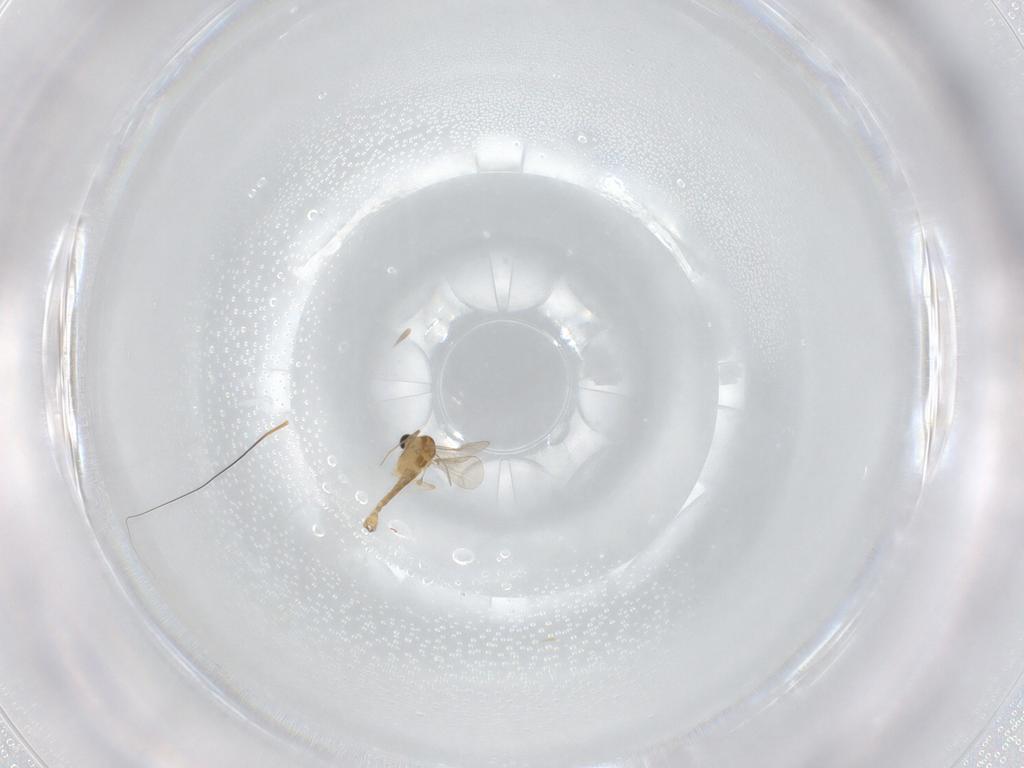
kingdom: Animalia
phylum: Arthropoda
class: Insecta
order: Diptera
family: Chironomidae
